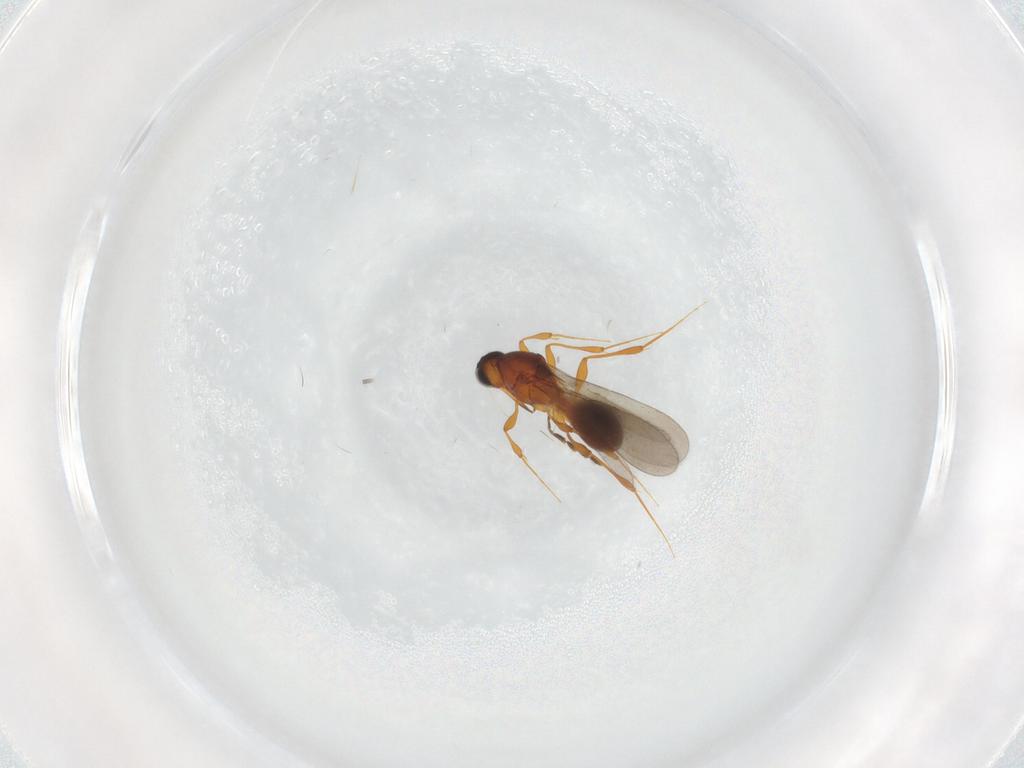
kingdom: Animalia
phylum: Arthropoda
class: Insecta
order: Hymenoptera
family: Platygastridae
